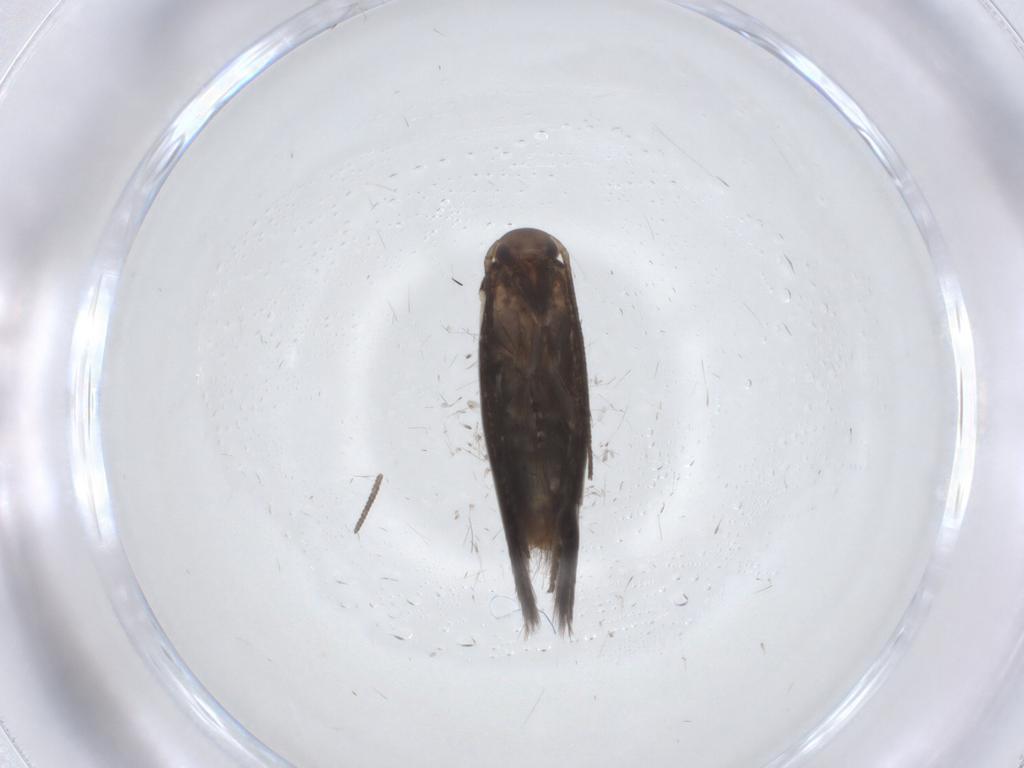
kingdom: Animalia
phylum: Arthropoda
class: Insecta
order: Lepidoptera
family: Elachistidae
